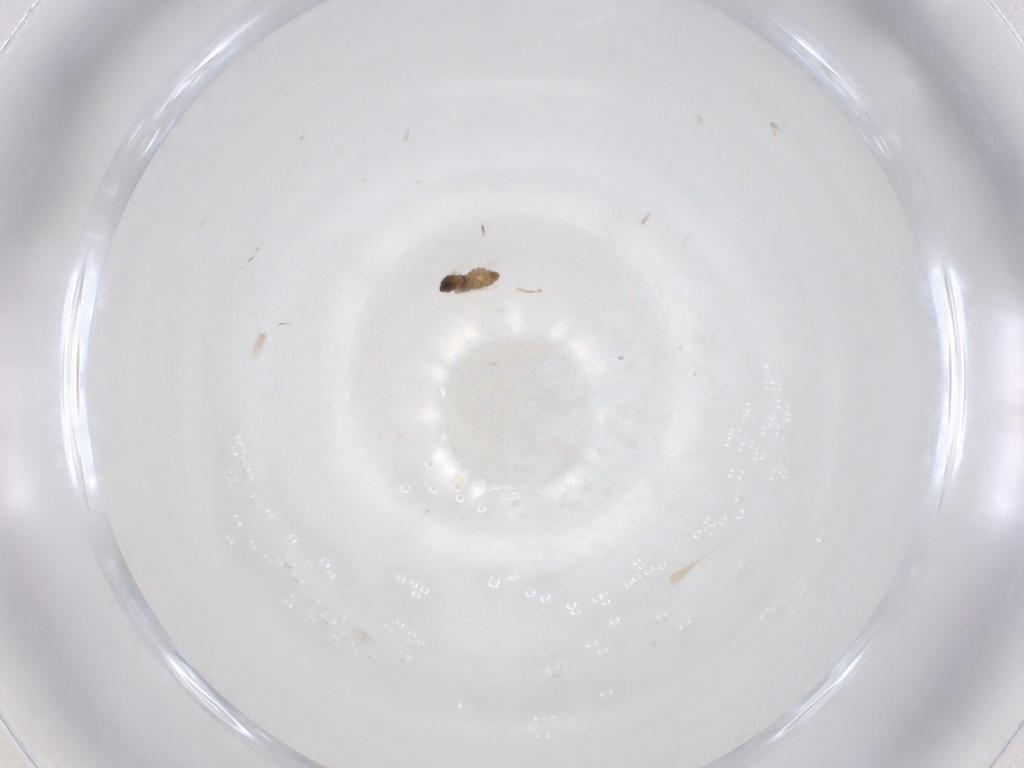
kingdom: Animalia
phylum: Arthropoda
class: Insecta
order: Diptera
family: Cecidomyiidae
